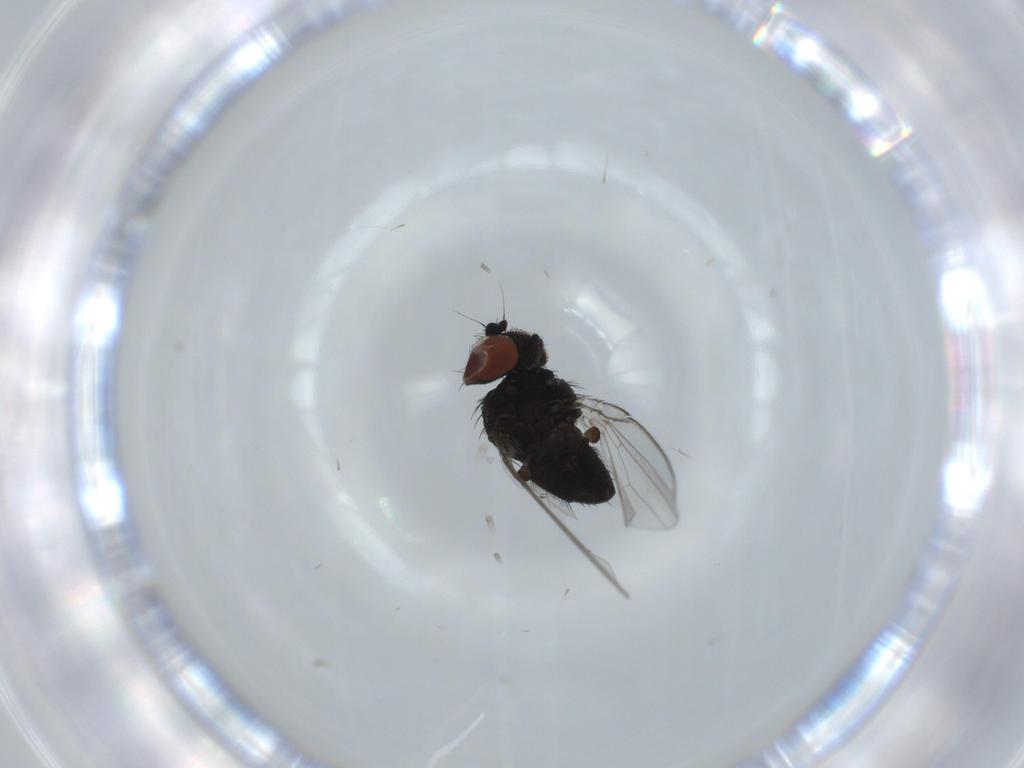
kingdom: Animalia
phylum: Arthropoda
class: Insecta
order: Diptera
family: Milichiidae
